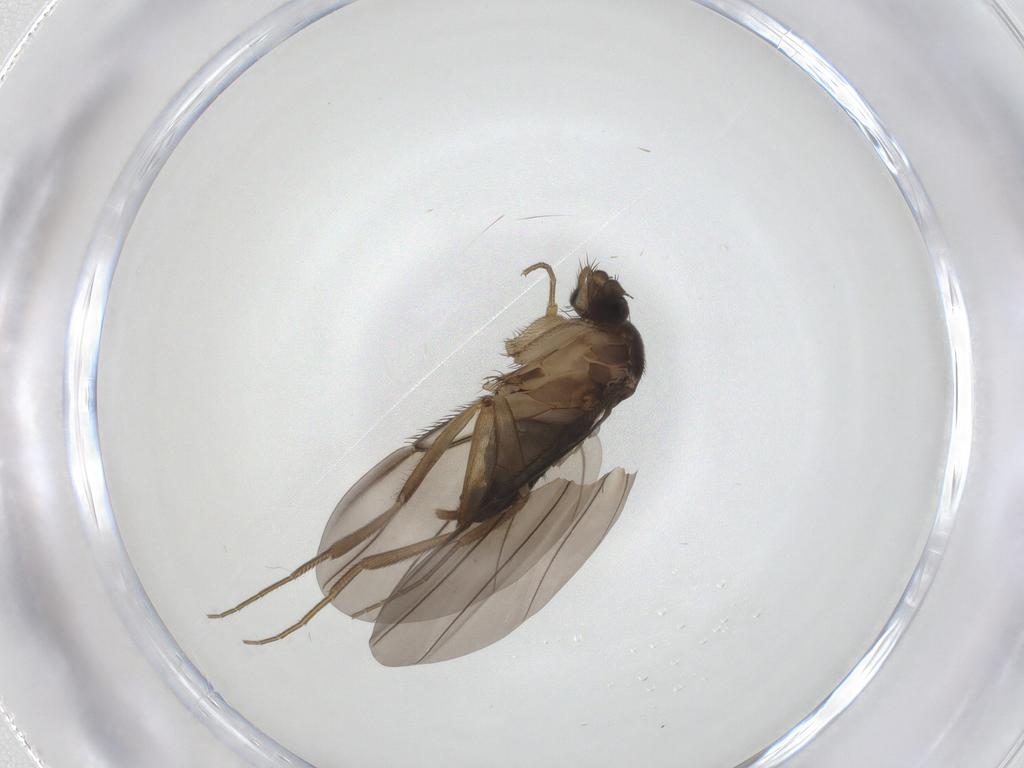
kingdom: Animalia
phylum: Arthropoda
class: Insecta
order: Diptera
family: Phoridae
